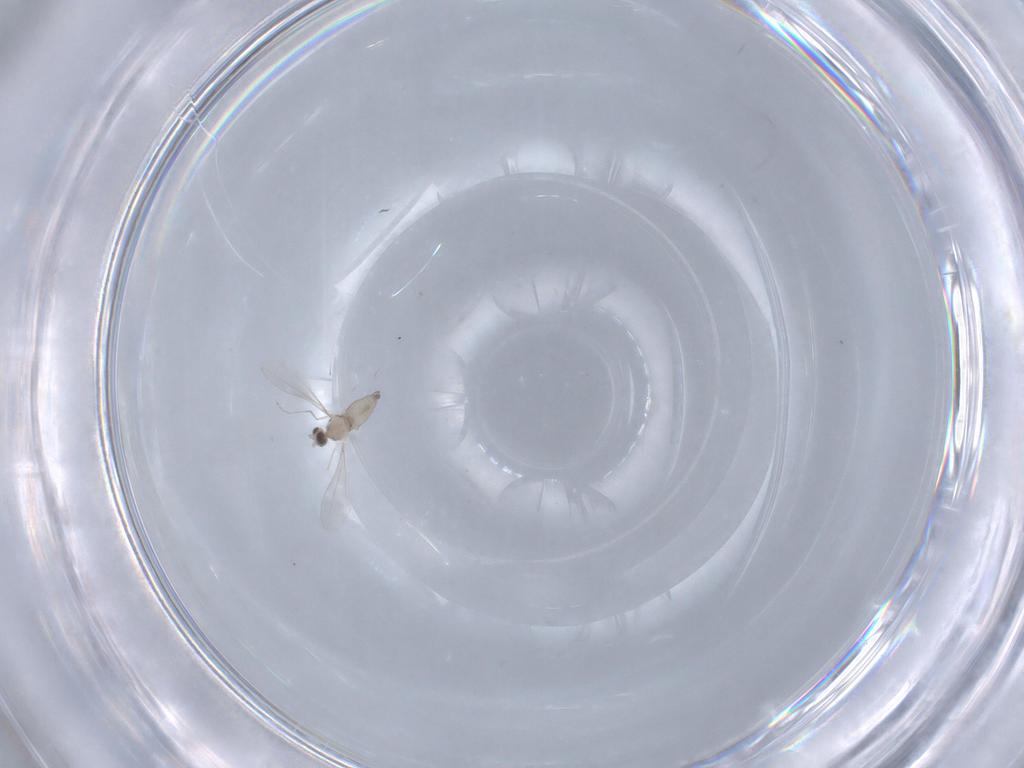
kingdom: Animalia
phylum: Arthropoda
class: Insecta
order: Diptera
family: Cecidomyiidae
